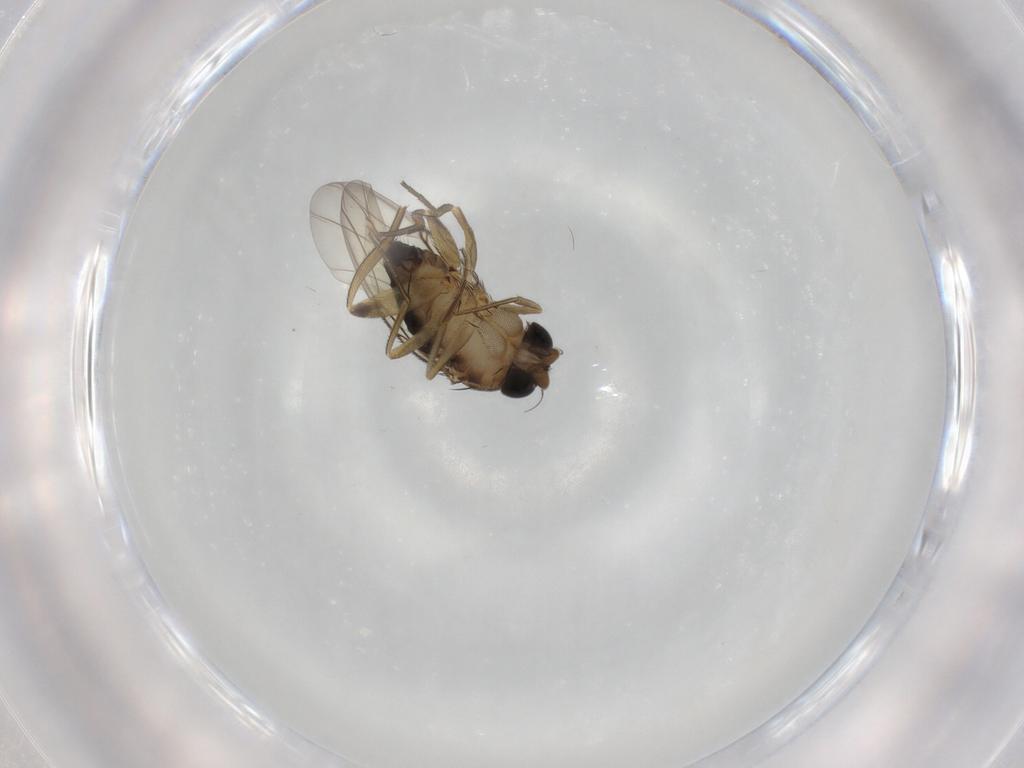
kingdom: Animalia
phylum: Arthropoda
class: Insecta
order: Diptera
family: Phoridae
